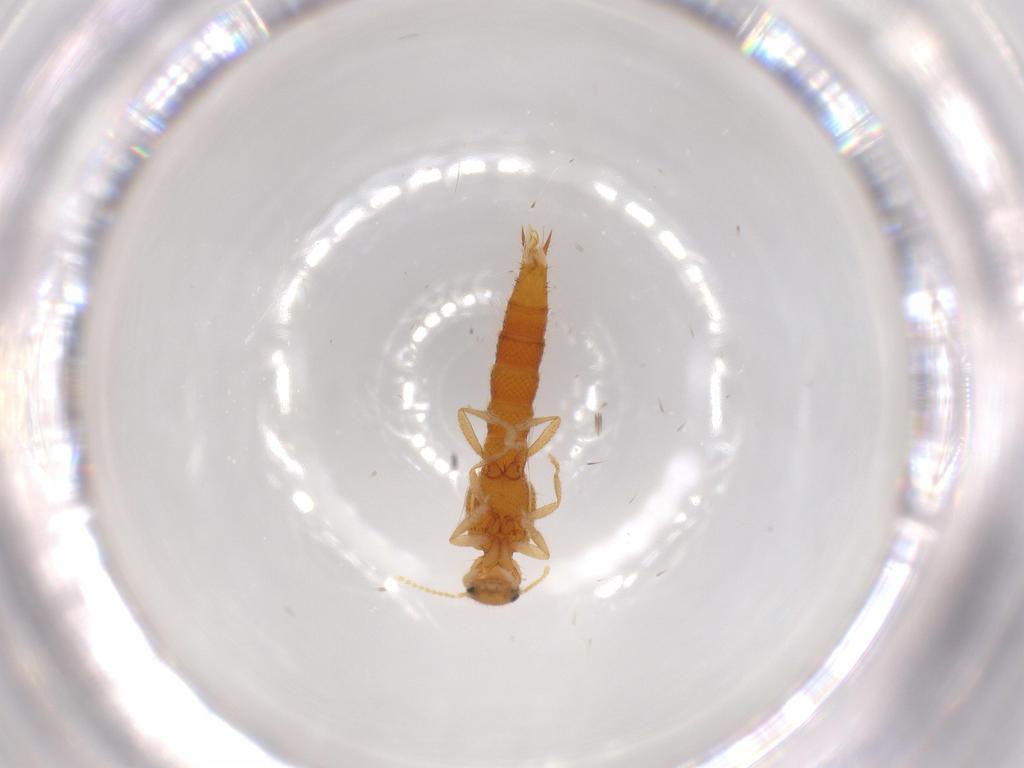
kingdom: Animalia
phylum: Arthropoda
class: Insecta
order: Coleoptera
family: Staphylinidae
